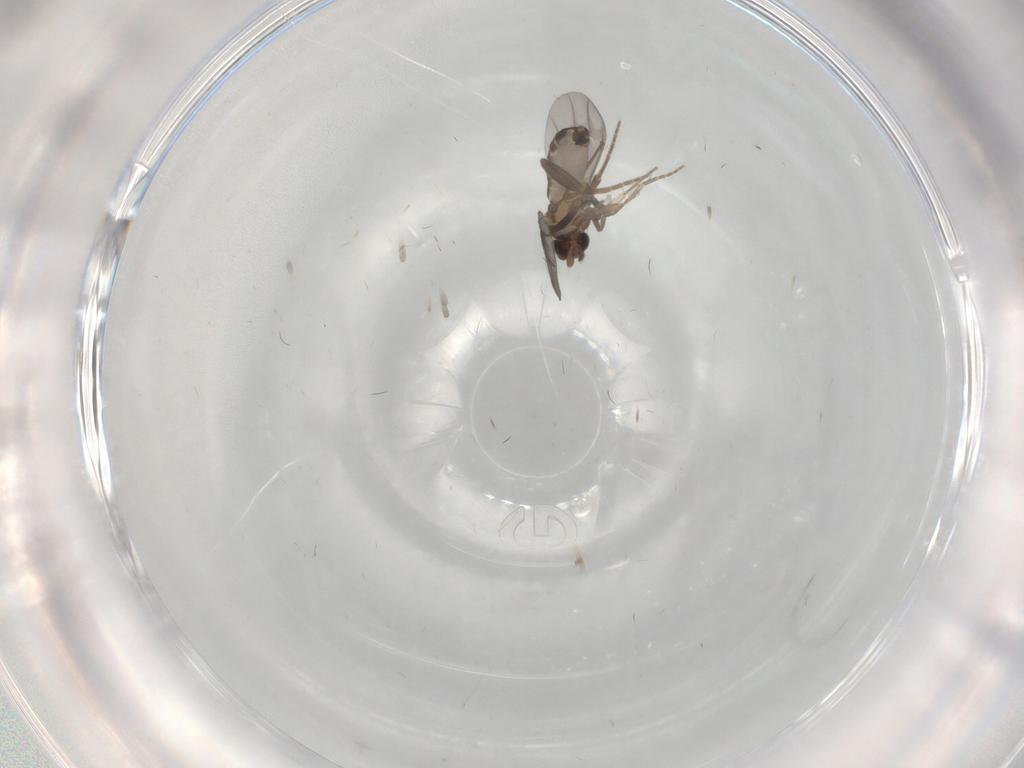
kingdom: Animalia
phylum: Arthropoda
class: Insecta
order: Diptera
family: Phoridae
